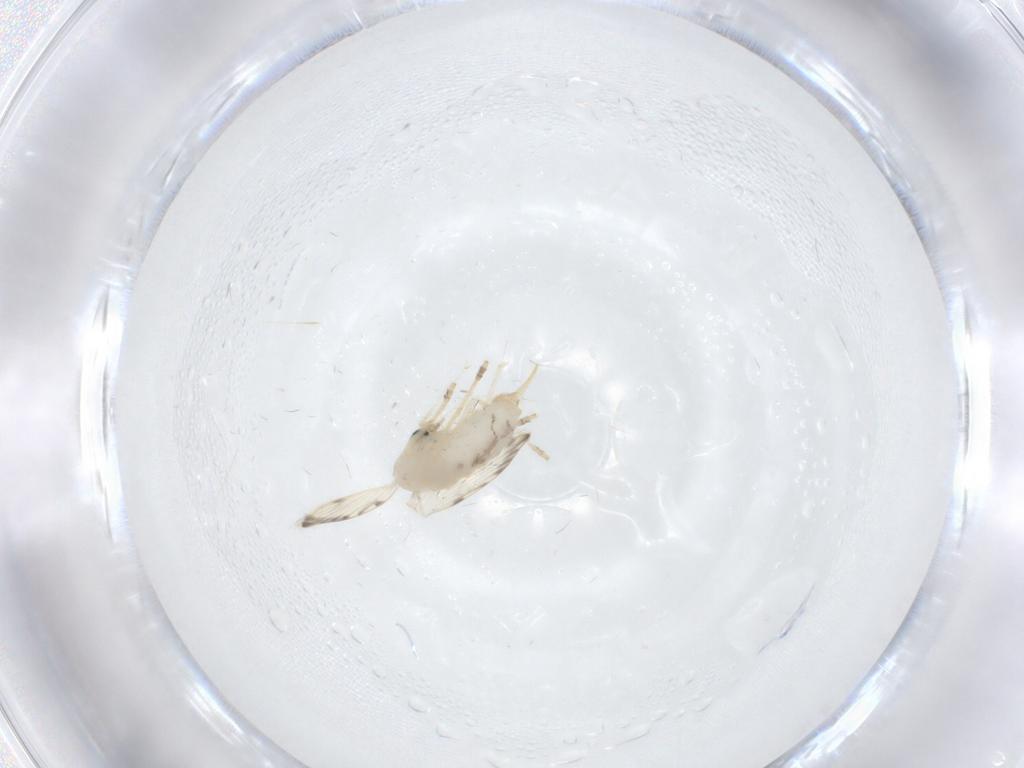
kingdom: Animalia
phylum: Arthropoda
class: Insecta
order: Diptera
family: Psychodidae
